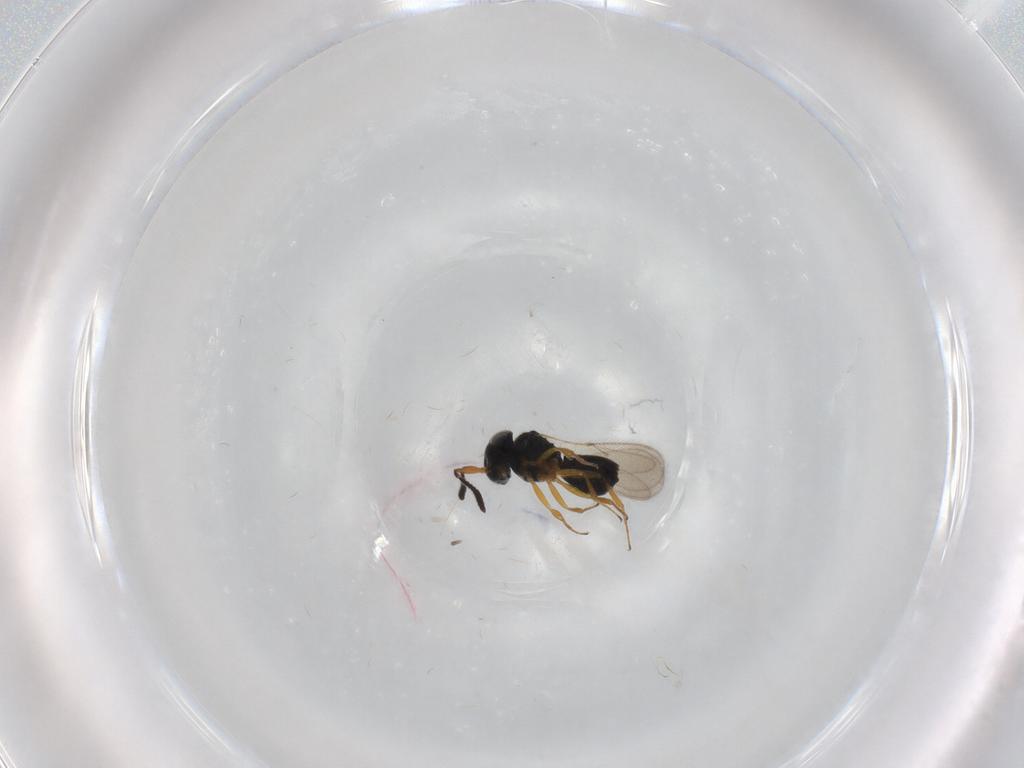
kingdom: Animalia
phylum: Arthropoda
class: Insecta
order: Hymenoptera
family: Scelionidae
